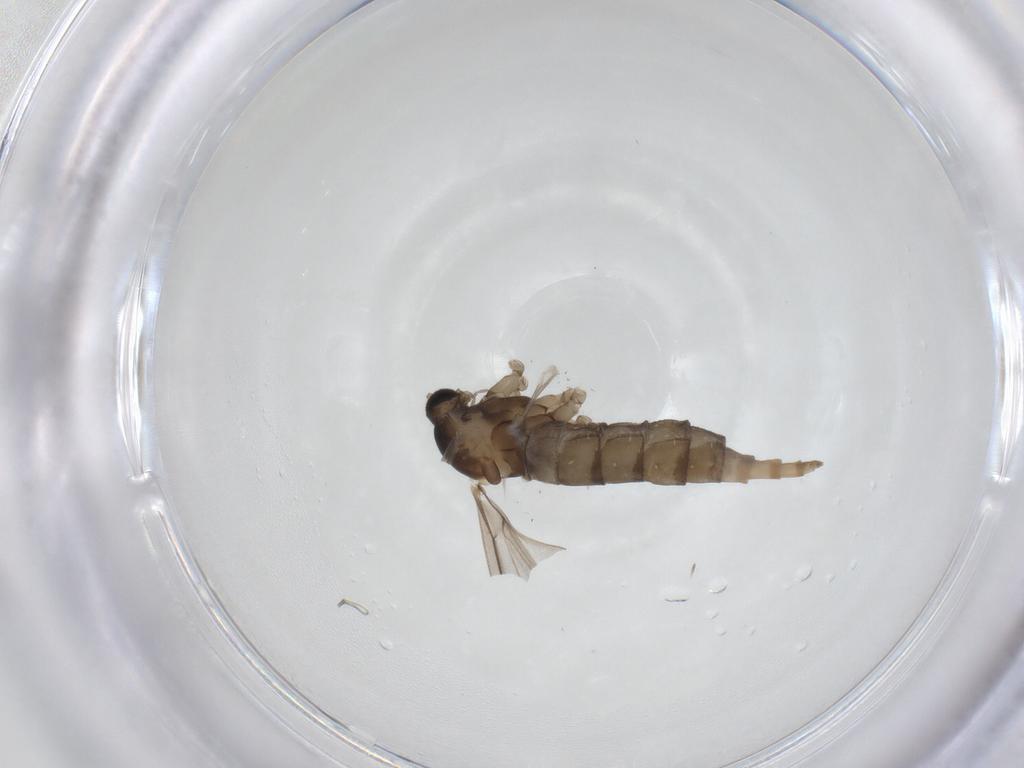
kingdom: Animalia
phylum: Arthropoda
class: Insecta
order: Diptera
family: Cecidomyiidae
